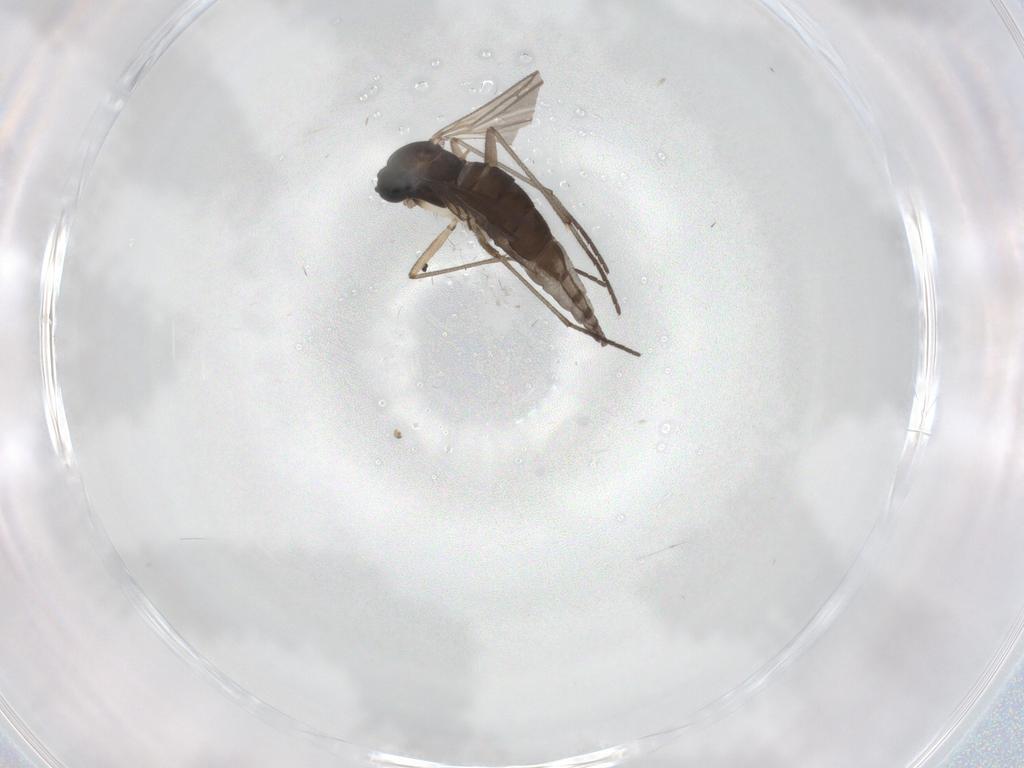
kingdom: Animalia
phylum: Arthropoda
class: Insecta
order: Diptera
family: Sciaridae
